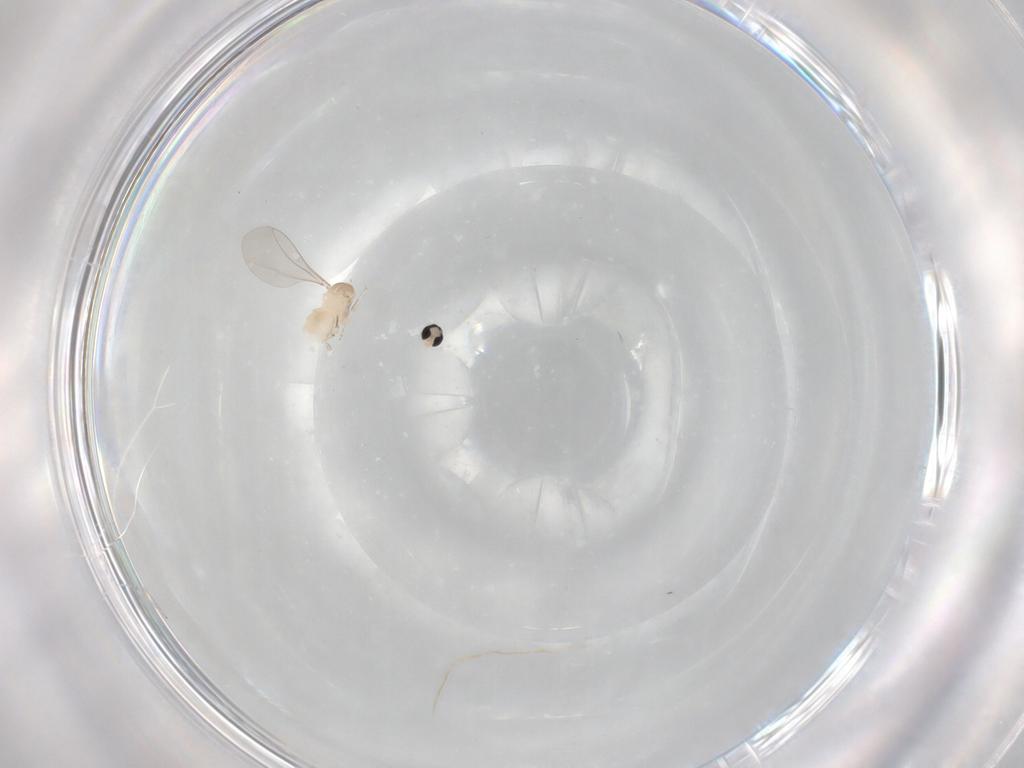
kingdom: Animalia
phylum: Arthropoda
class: Insecta
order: Diptera
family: Cecidomyiidae
